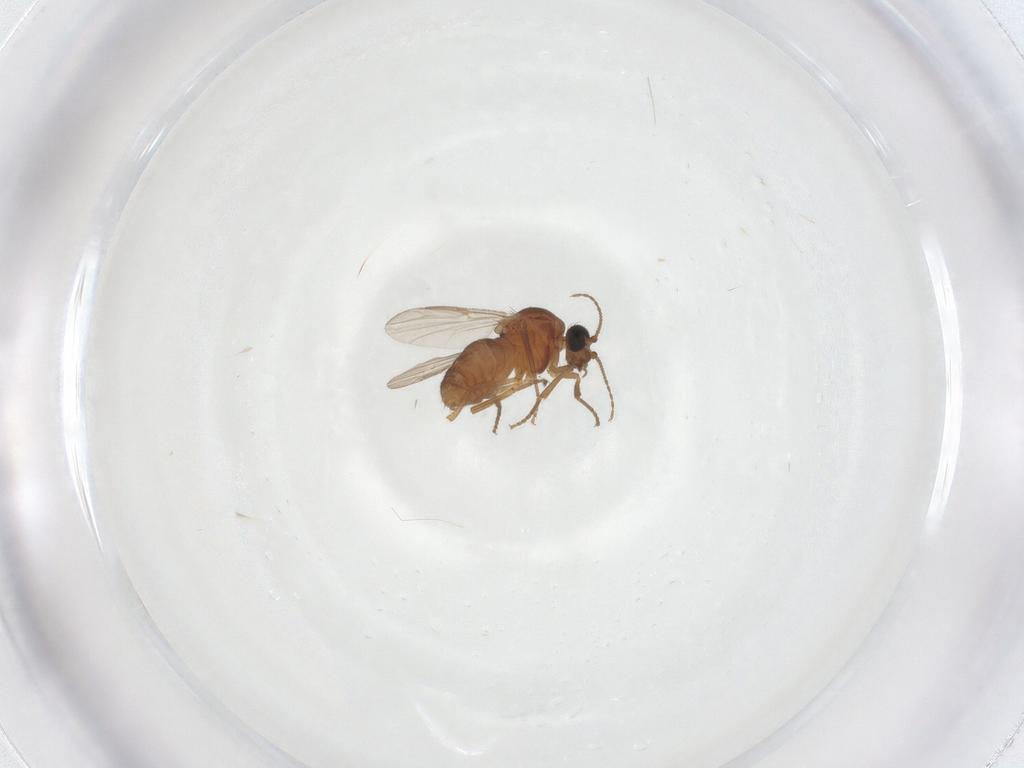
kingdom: Animalia
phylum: Arthropoda
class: Insecta
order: Diptera
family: Ceratopogonidae
